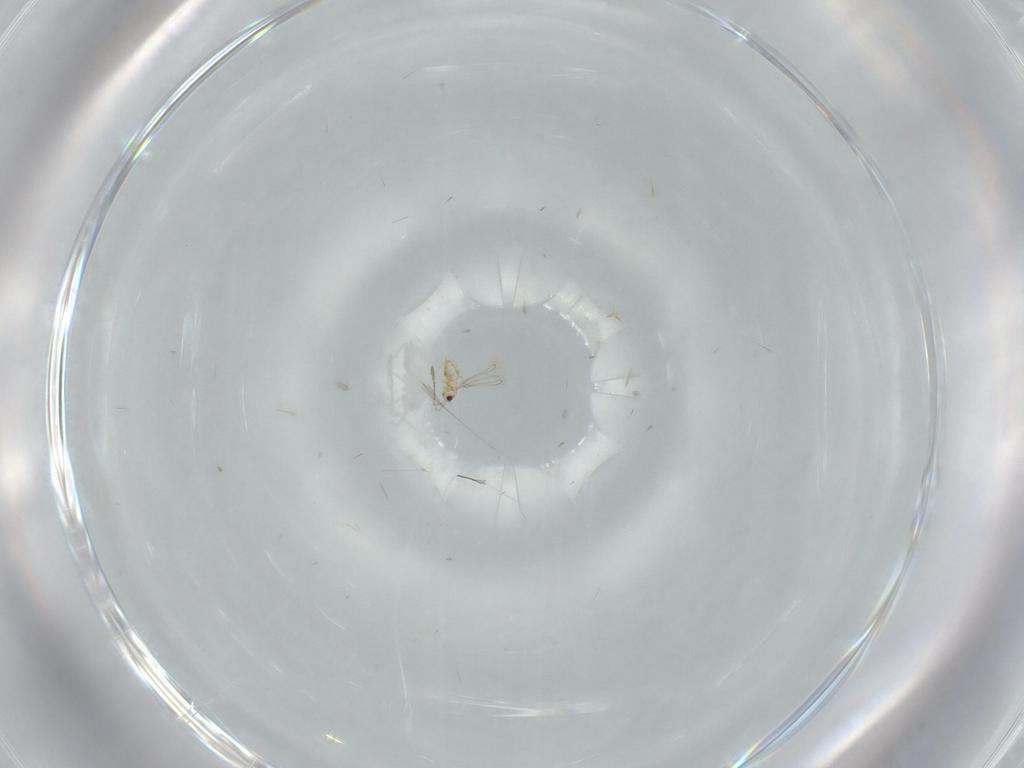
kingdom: Animalia
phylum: Arthropoda
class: Insecta
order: Hymenoptera
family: Mymaridae
